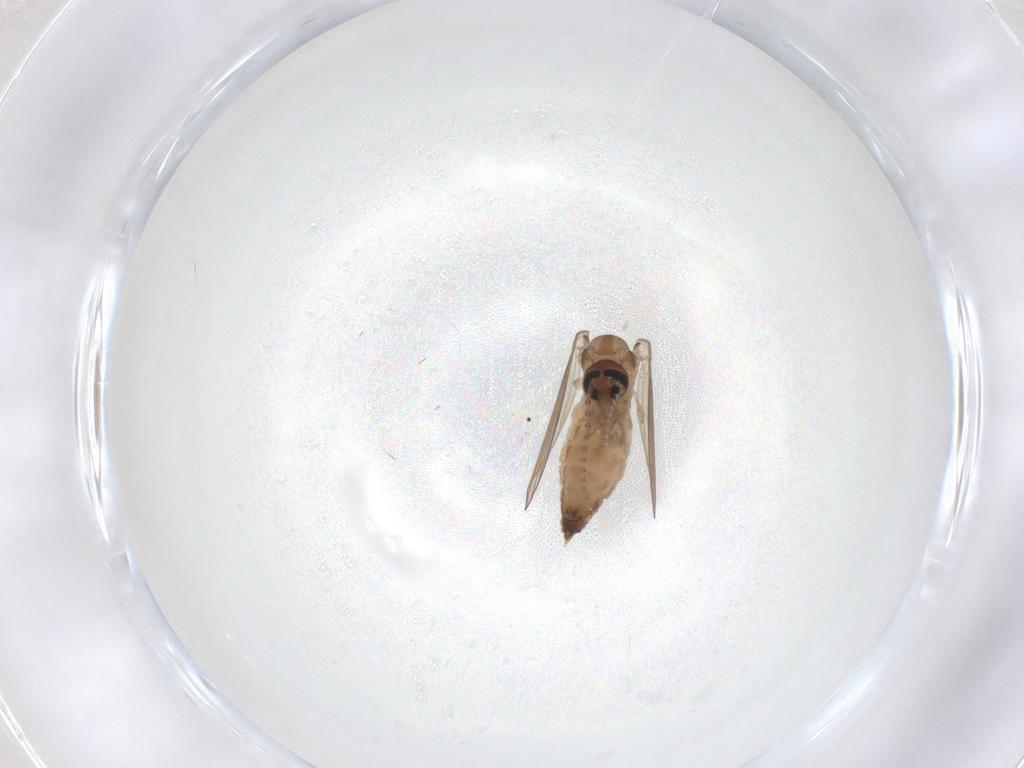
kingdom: Animalia
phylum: Arthropoda
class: Insecta
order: Diptera
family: Psychodidae
